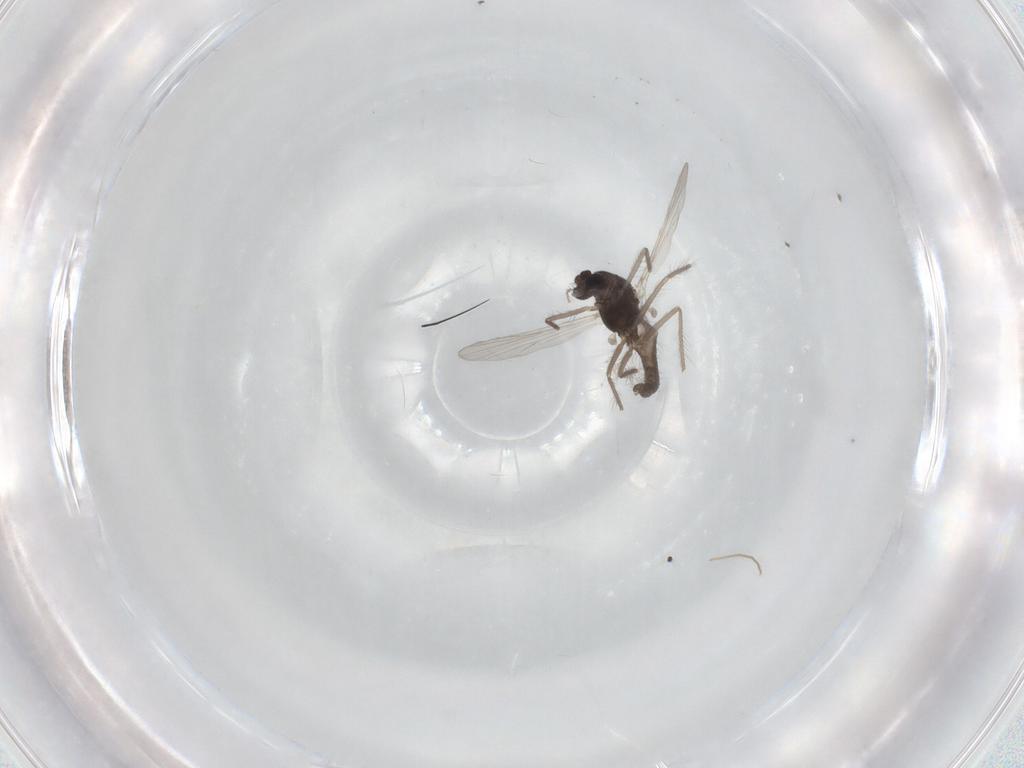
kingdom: Animalia
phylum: Arthropoda
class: Insecta
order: Diptera
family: Chironomidae
